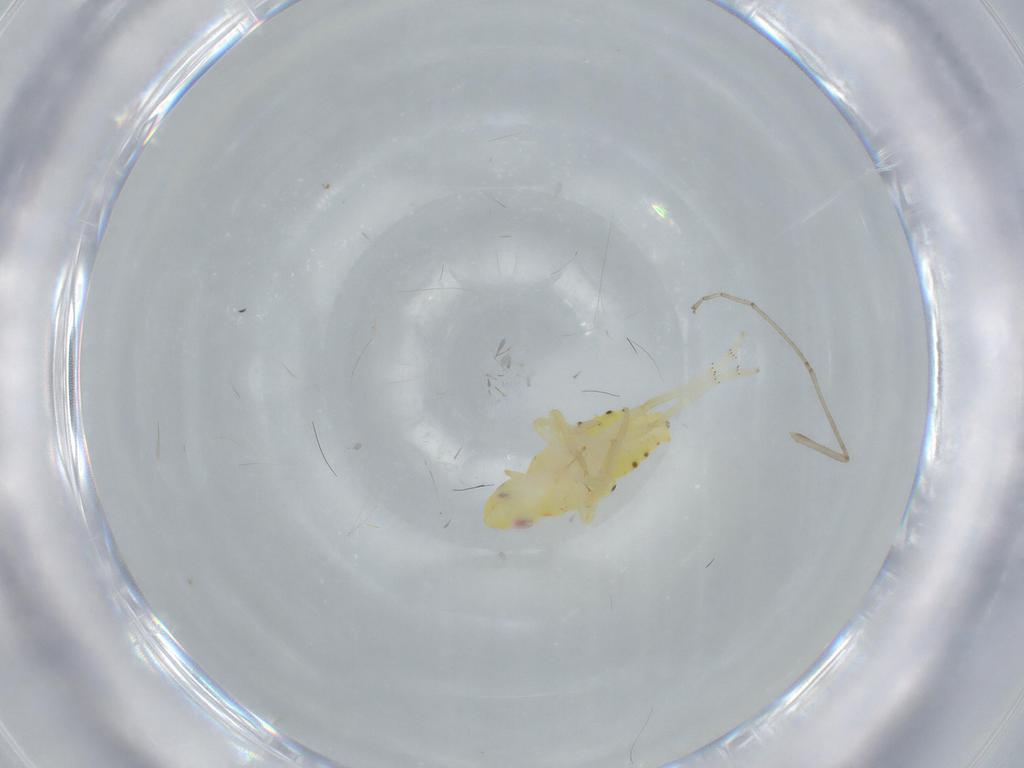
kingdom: Animalia
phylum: Arthropoda
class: Insecta
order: Hemiptera
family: Tropiduchidae
